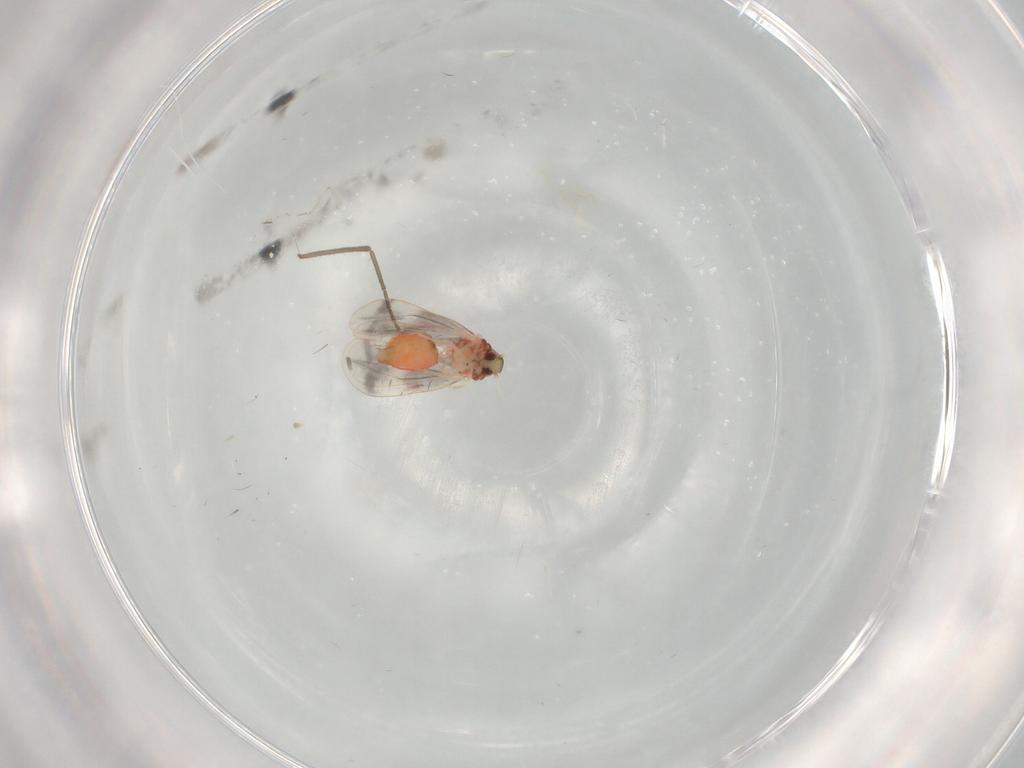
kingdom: Animalia
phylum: Arthropoda
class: Insecta
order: Hemiptera
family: Aleyrodidae
